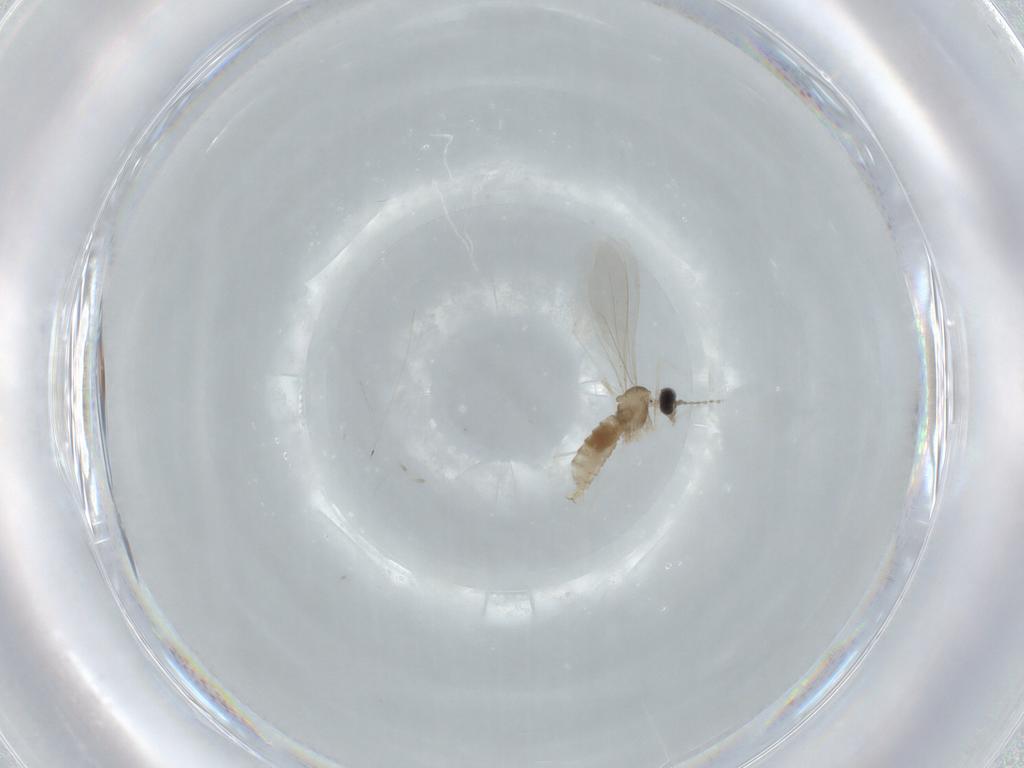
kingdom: Animalia
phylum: Arthropoda
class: Insecta
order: Diptera
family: Cecidomyiidae
